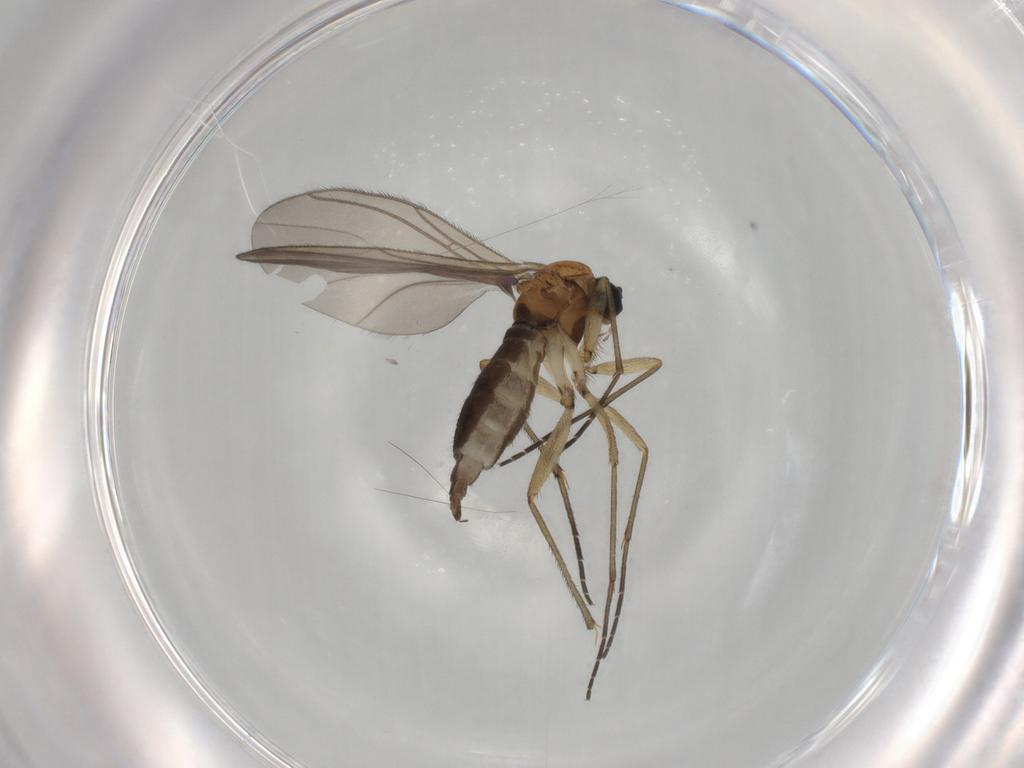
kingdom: Animalia
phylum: Arthropoda
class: Insecta
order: Diptera
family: Sciaridae
